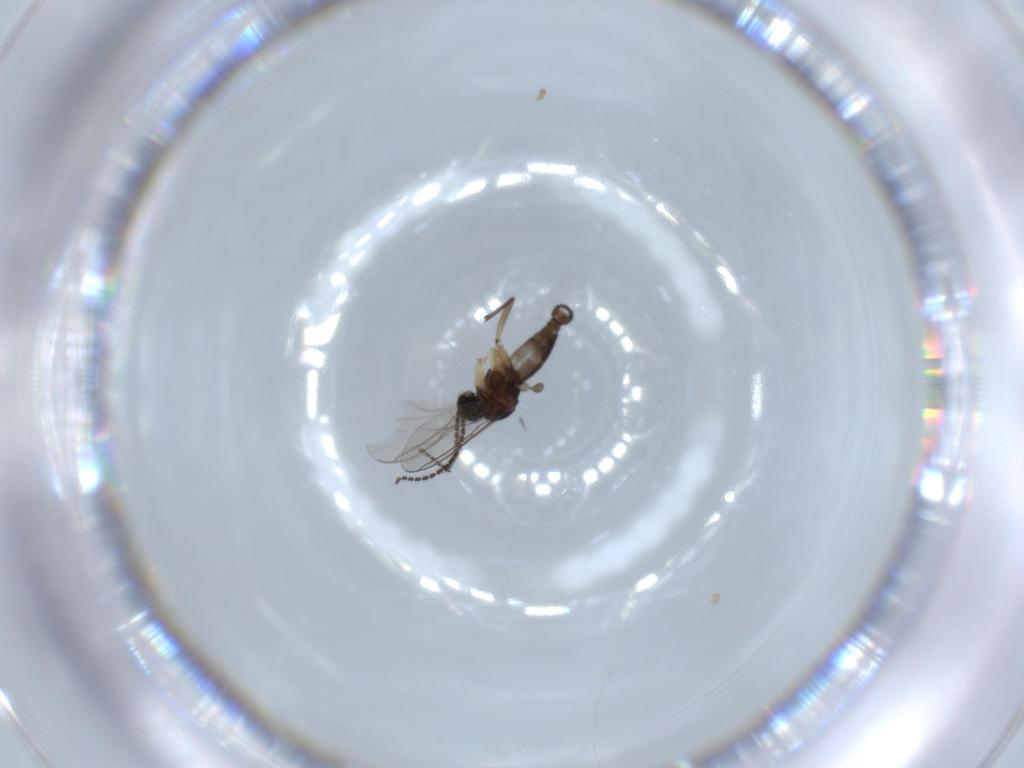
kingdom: Animalia
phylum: Arthropoda
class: Insecta
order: Diptera
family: Sciaridae
